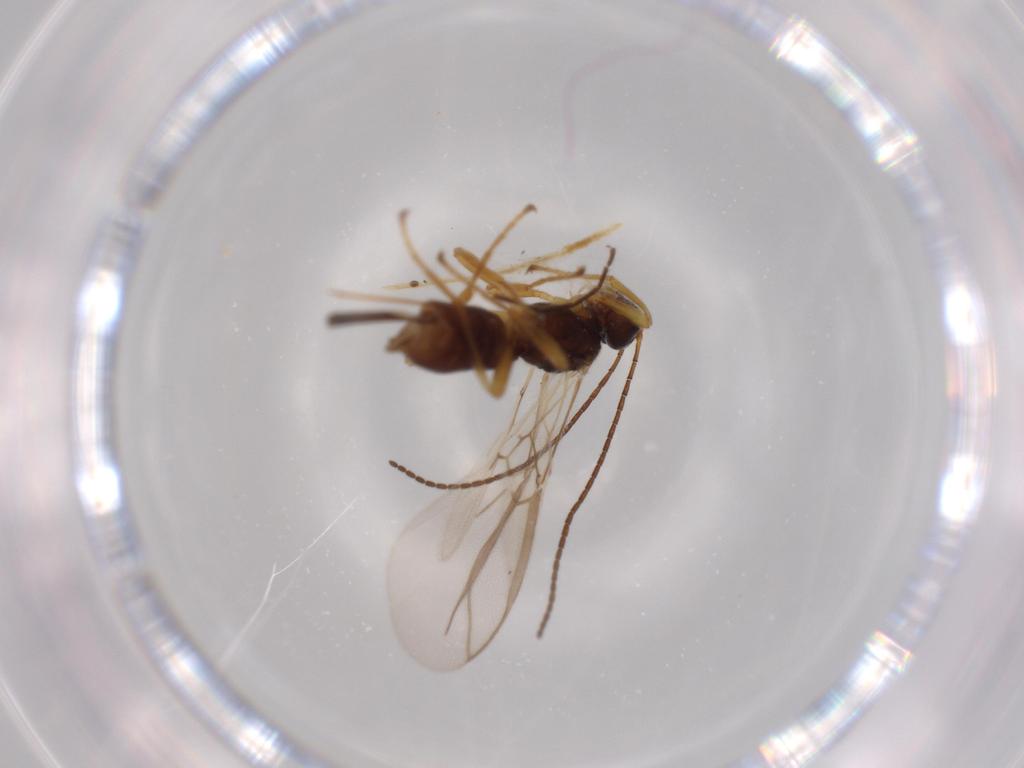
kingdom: Animalia
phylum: Arthropoda
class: Insecta
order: Hymenoptera
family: Braconidae
